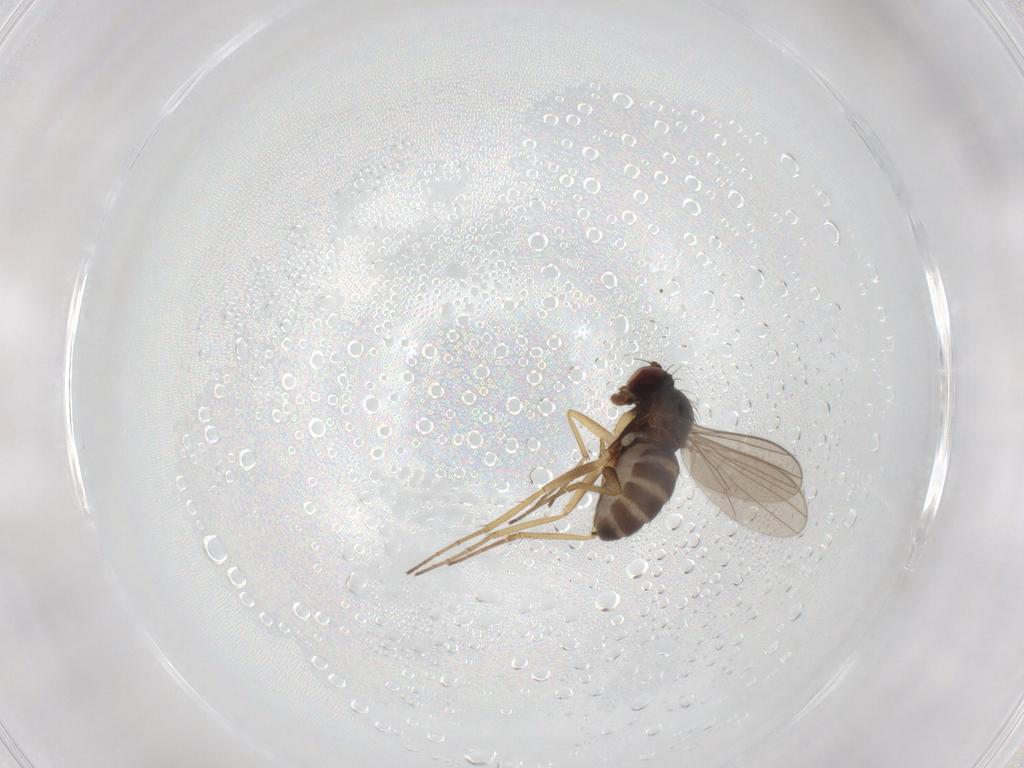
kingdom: Animalia
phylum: Arthropoda
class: Insecta
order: Diptera
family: Dolichopodidae
